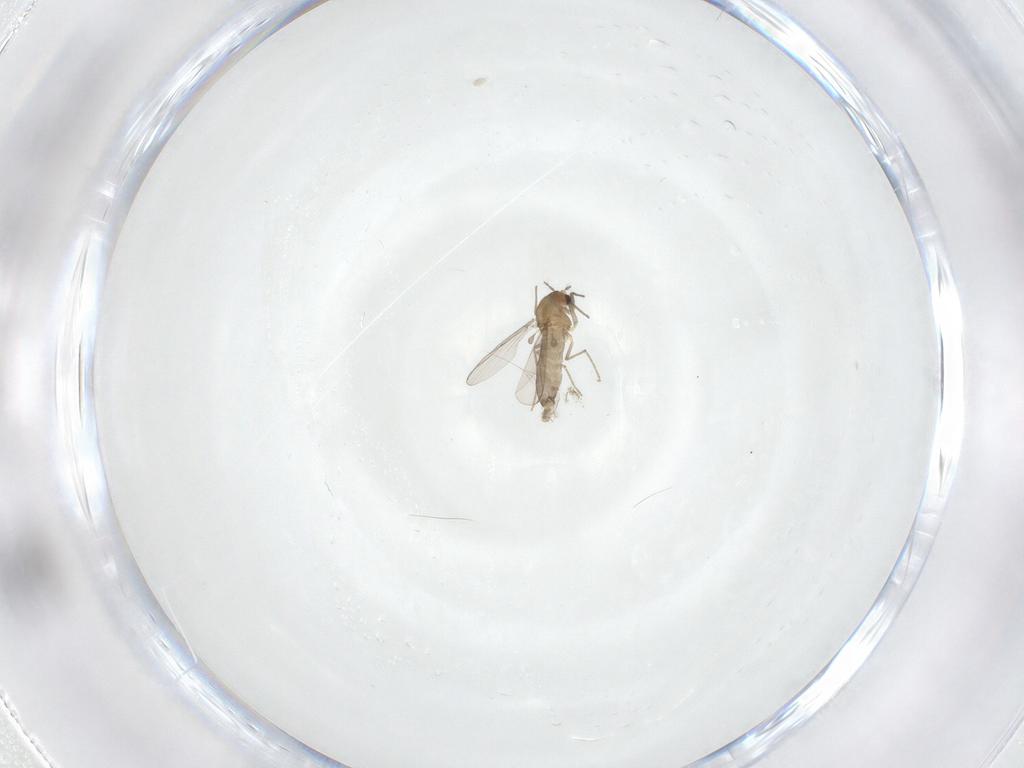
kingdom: Animalia
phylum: Arthropoda
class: Insecta
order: Diptera
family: Chironomidae
